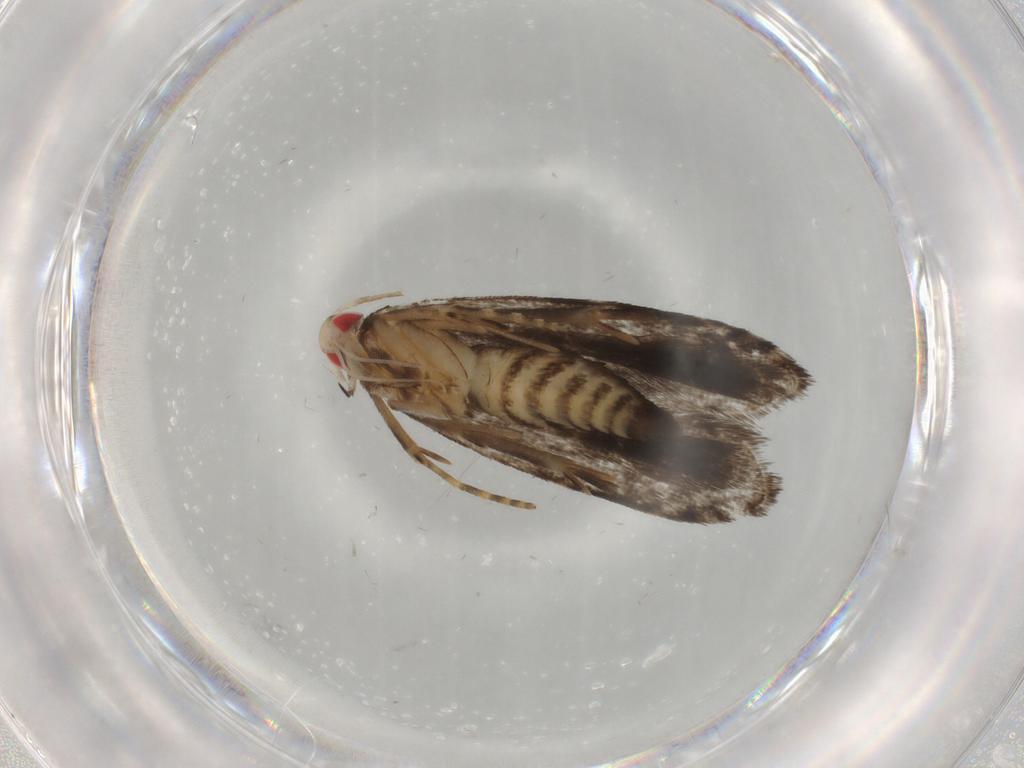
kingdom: Animalia
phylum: Arthropoda
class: Insecta
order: Lepidoptera
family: Gelechiidae
